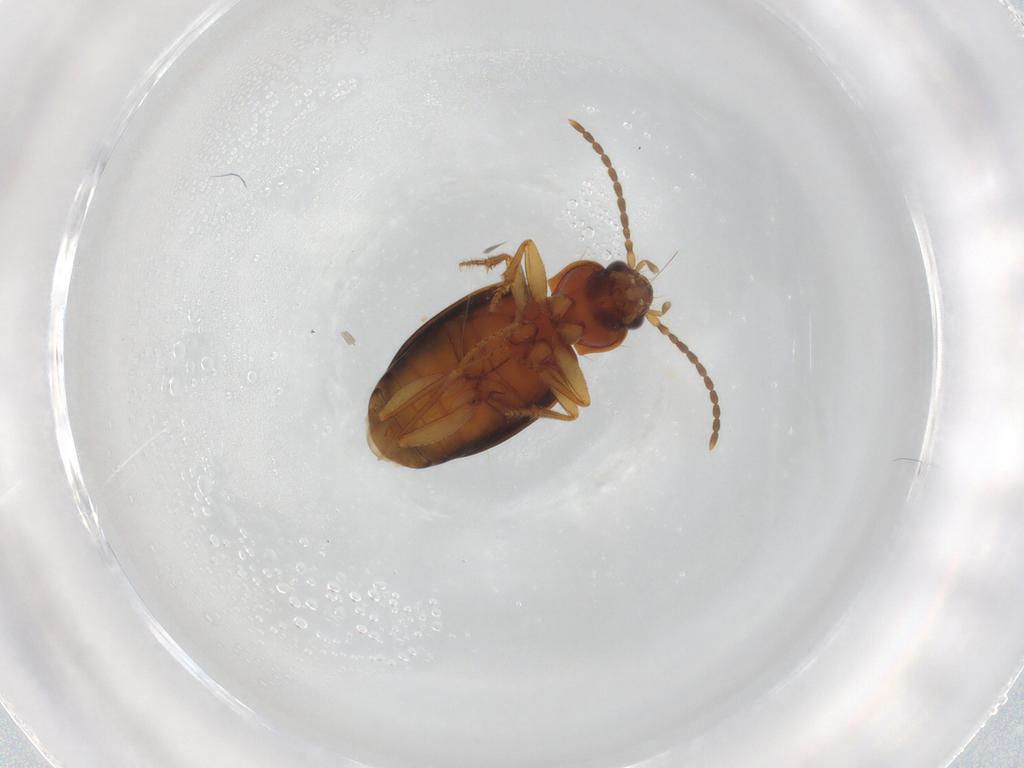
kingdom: Animalia
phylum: Arthropoda
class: Insecta
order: Coleoptera
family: Carabidae
